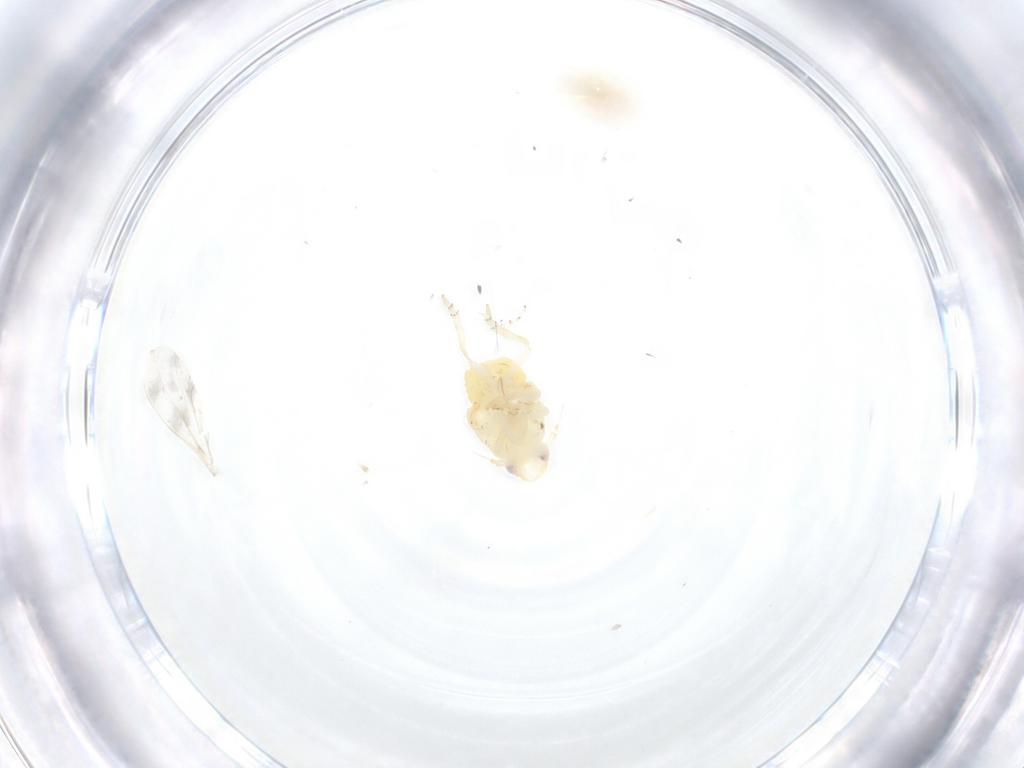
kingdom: Animalia
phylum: Arthropoda
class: Insecta
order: Hemiptera
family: Fulgoroidea_incertae_sedis
